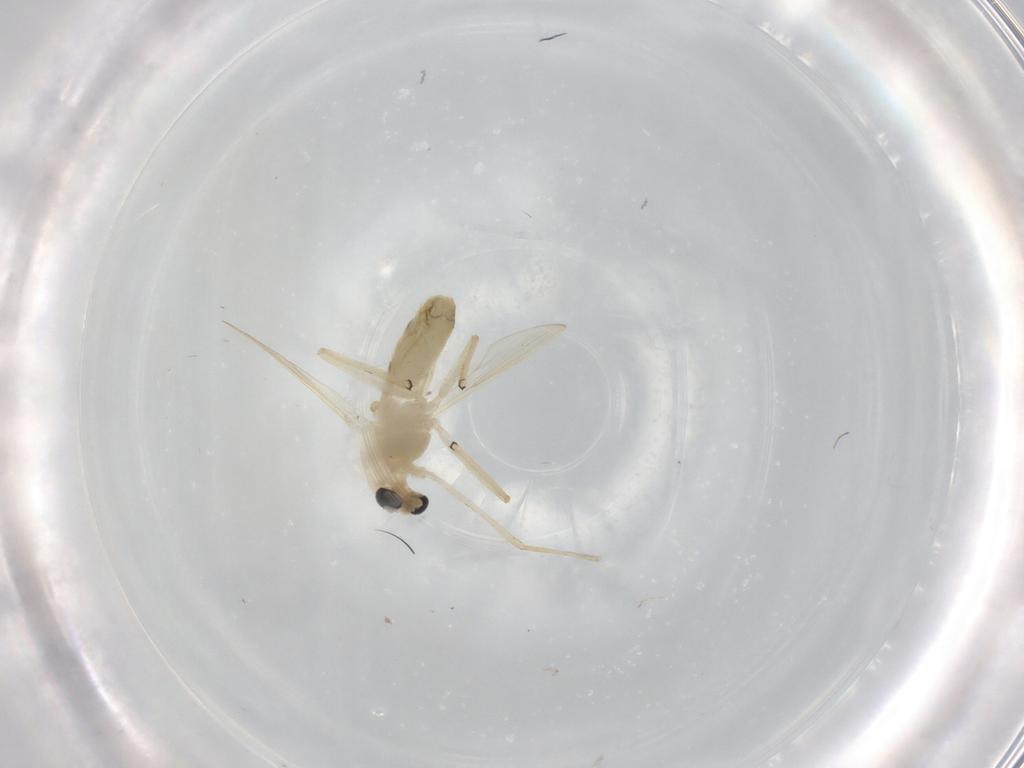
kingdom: Animalia
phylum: Arthropoda
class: Insecta
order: Diptera
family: Chironomidae
